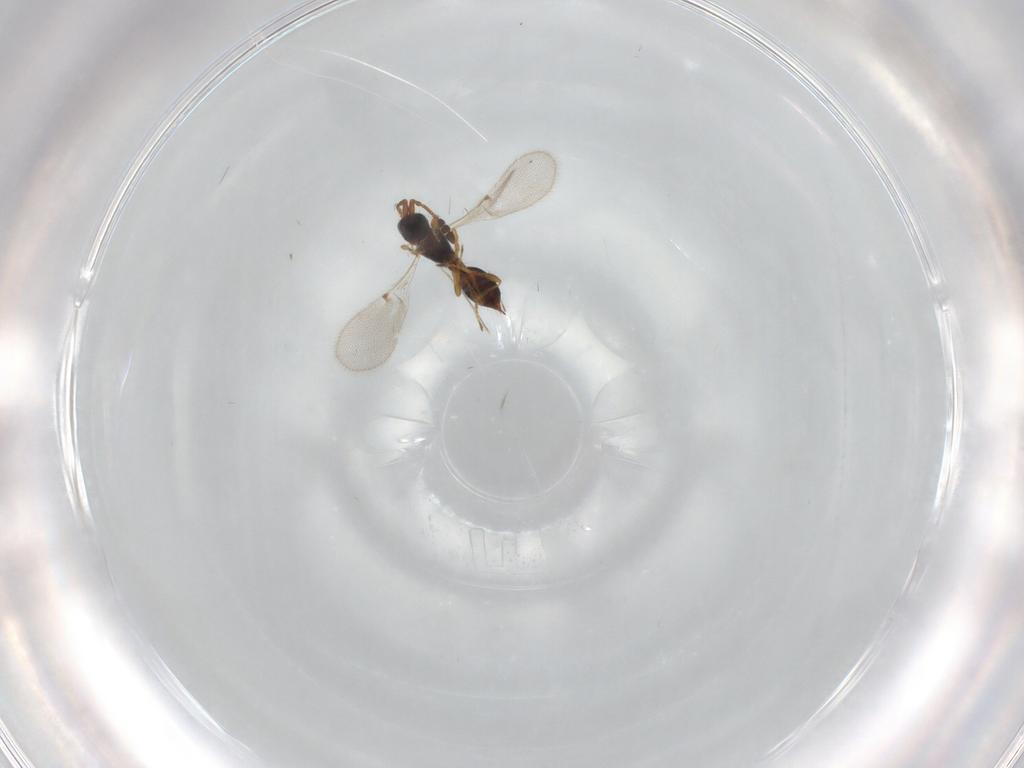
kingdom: Animalia
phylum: Arthropoda
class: Insecta
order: Hymenoptera
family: Diapriidae
